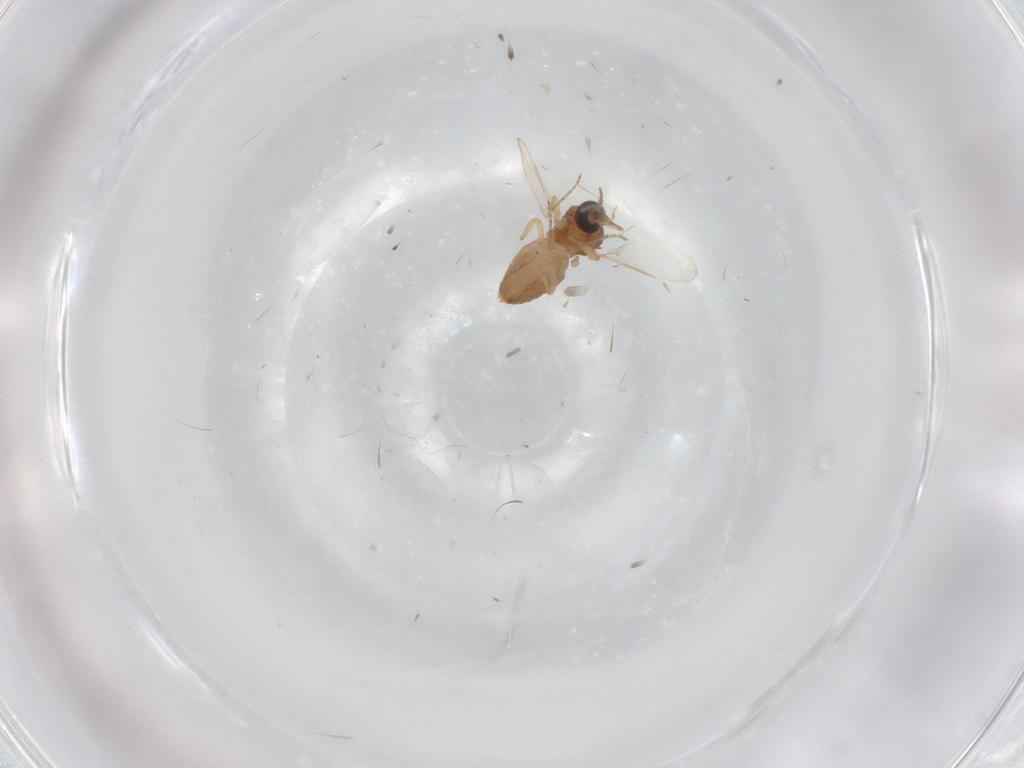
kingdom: Animalia
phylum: Arthropoda
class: Insecta
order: Diptera
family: Ceratopogonidae
